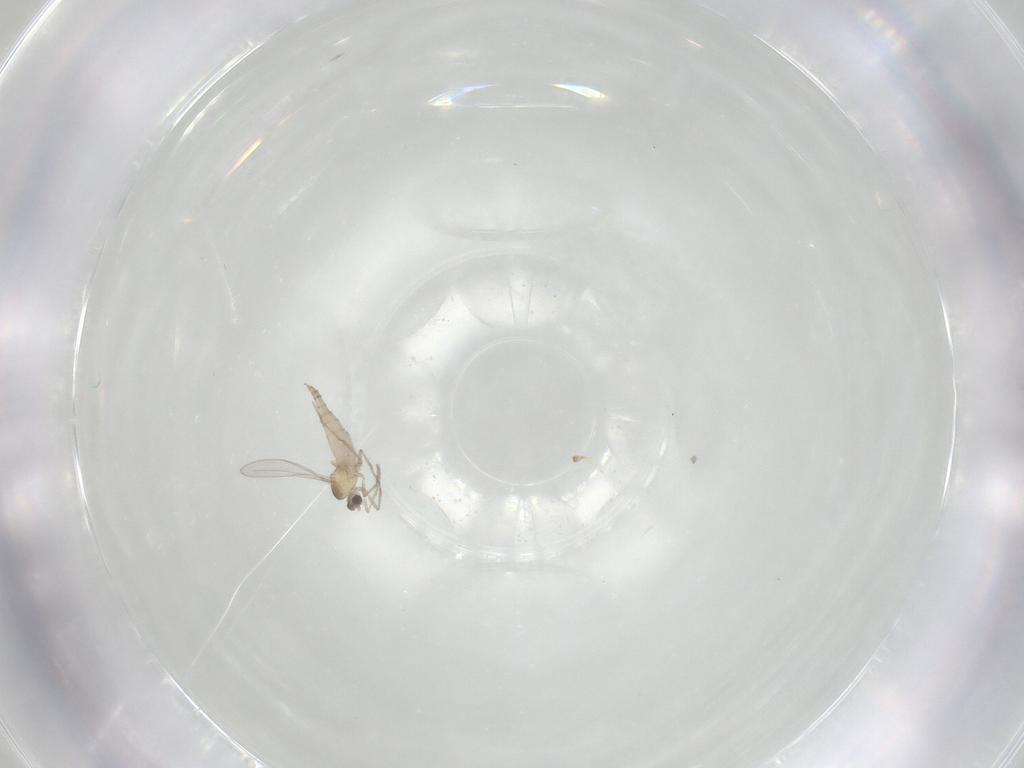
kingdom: Animalia
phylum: Arthropoda
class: Insecta
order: Diptera
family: Cecidomyiidae
